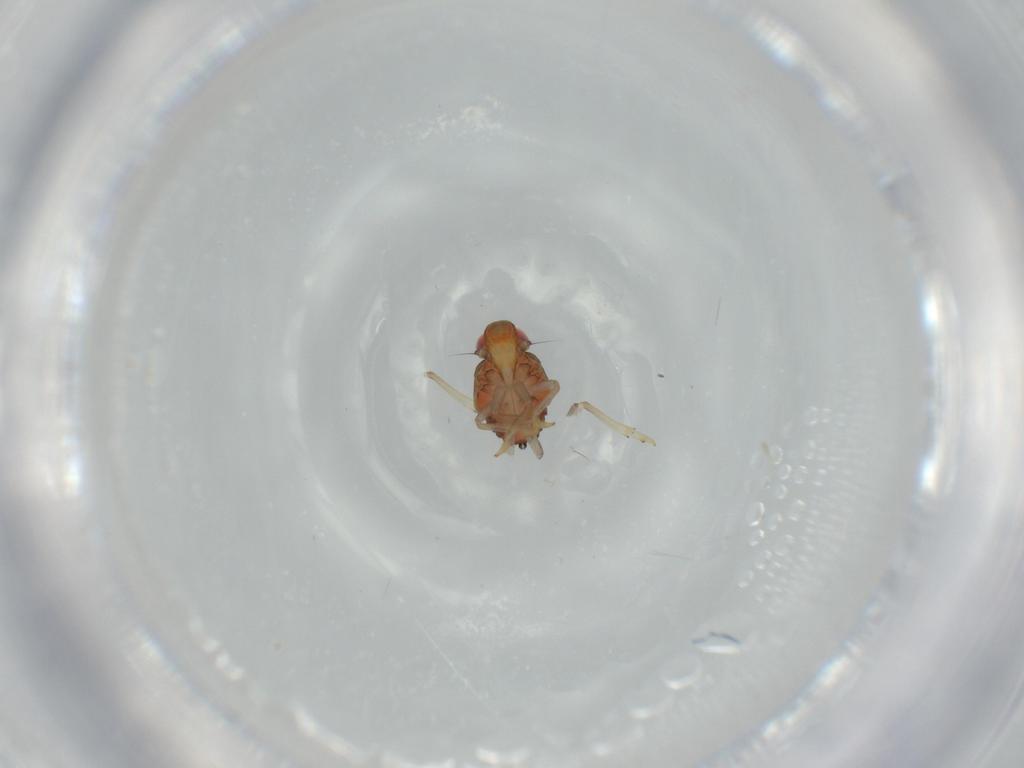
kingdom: Animalia
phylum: Arthropoda
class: Insecta
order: Hemiptera
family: Issidae
